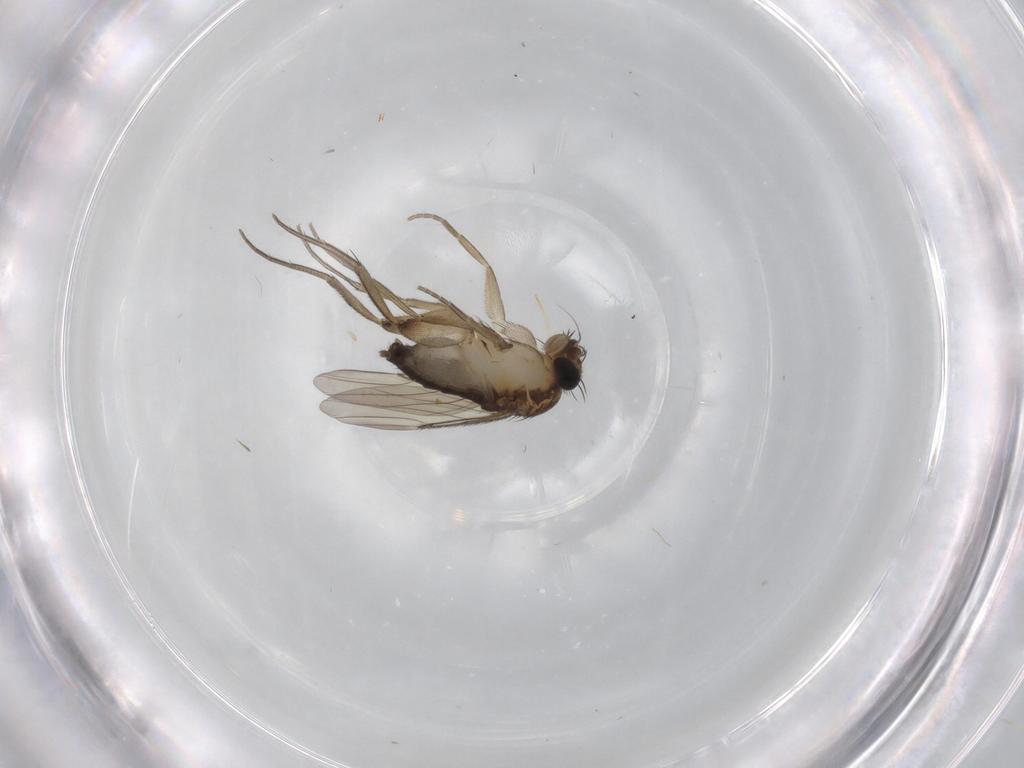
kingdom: Animalia
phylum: Arthropoda
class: Insecta
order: Diptera
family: Phoridae
